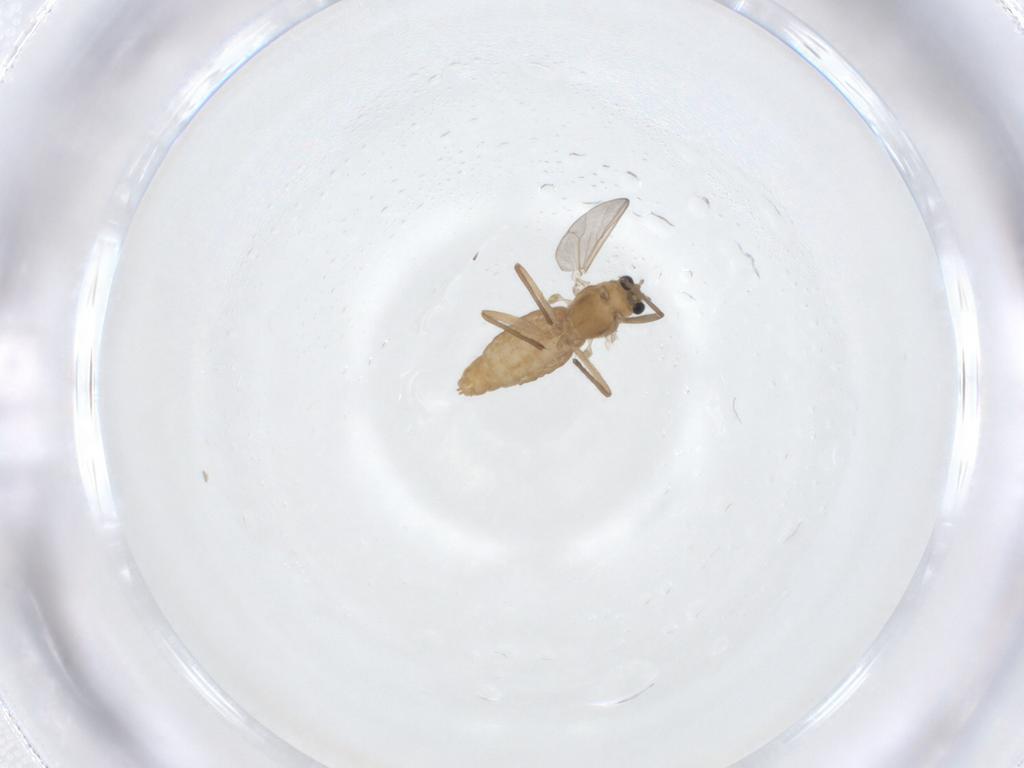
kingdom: Animalia
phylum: Arthropoda
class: Insecta
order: Diptera
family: Chironomidae
